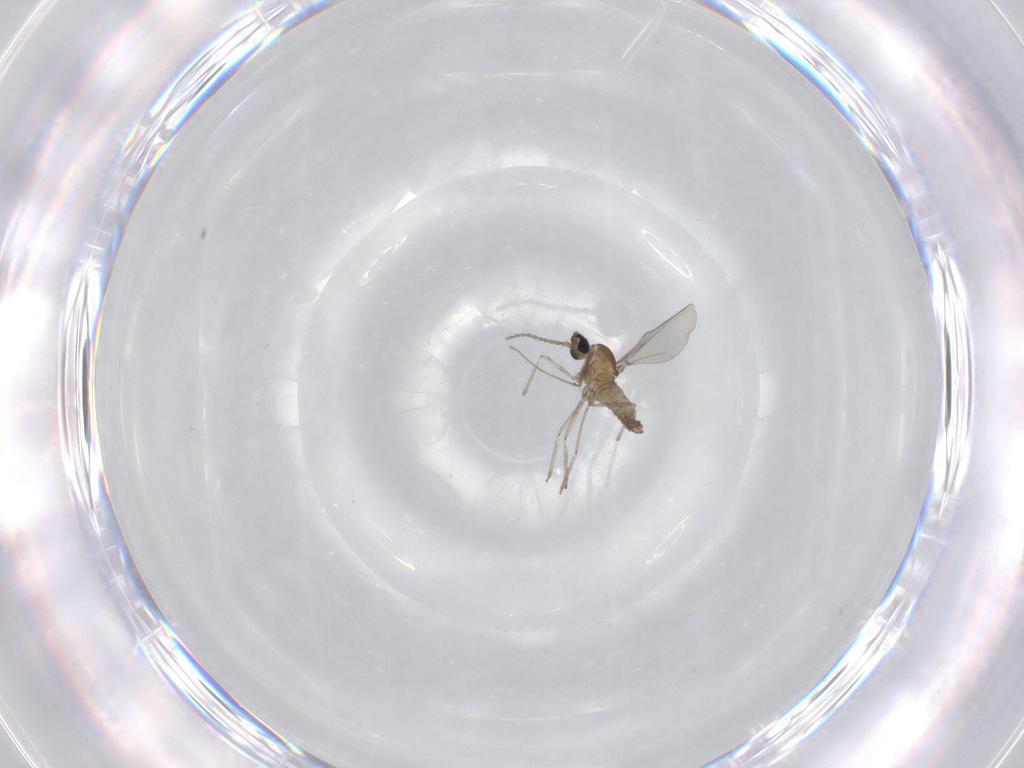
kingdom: Animalia
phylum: Arthropoda
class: Insecta
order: Diptera
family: Cecidomyiidae
